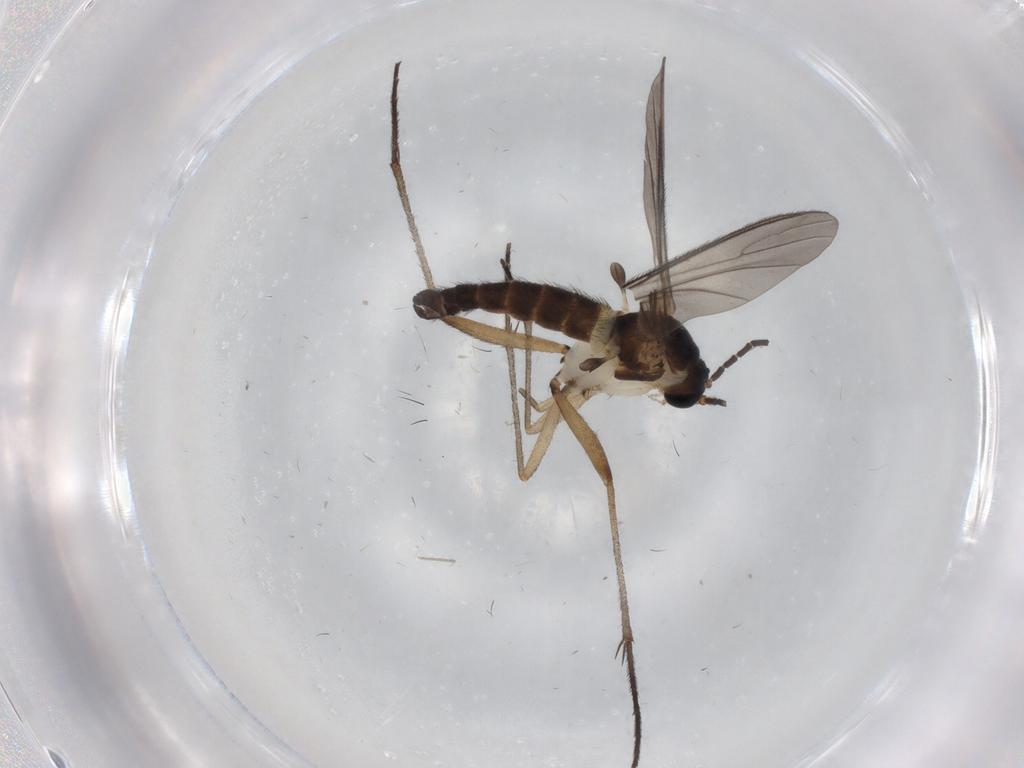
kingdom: Animalia
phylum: Arthropoda
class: Insecta
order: Diptera
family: Sciaridae
